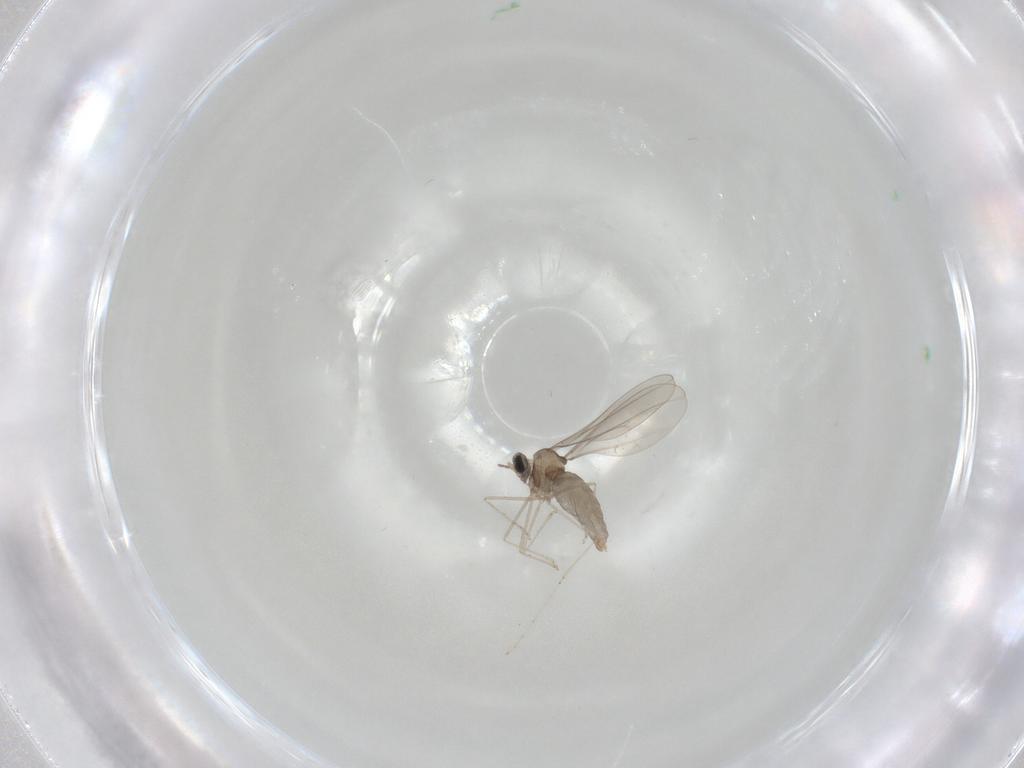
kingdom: Animalia
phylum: Arthropoda
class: Insecta
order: Diptera
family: Cecidomyiidae
